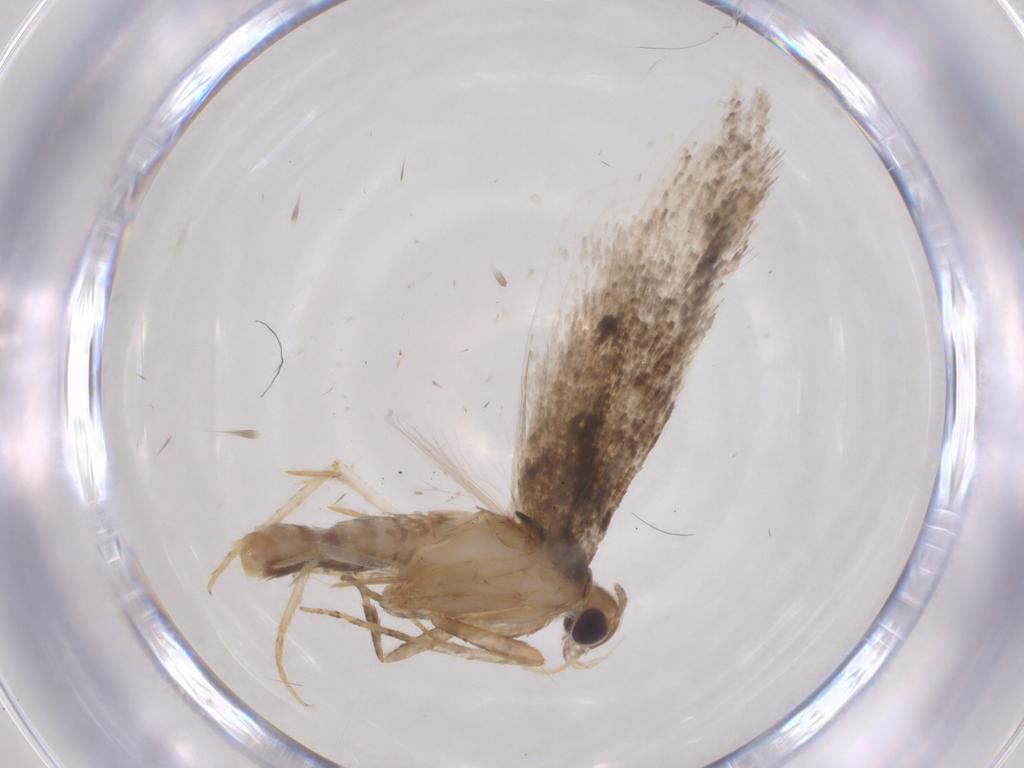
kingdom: Animalia
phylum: Arthropoda
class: Insecta
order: Lepidoptera
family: Gelechiidae
